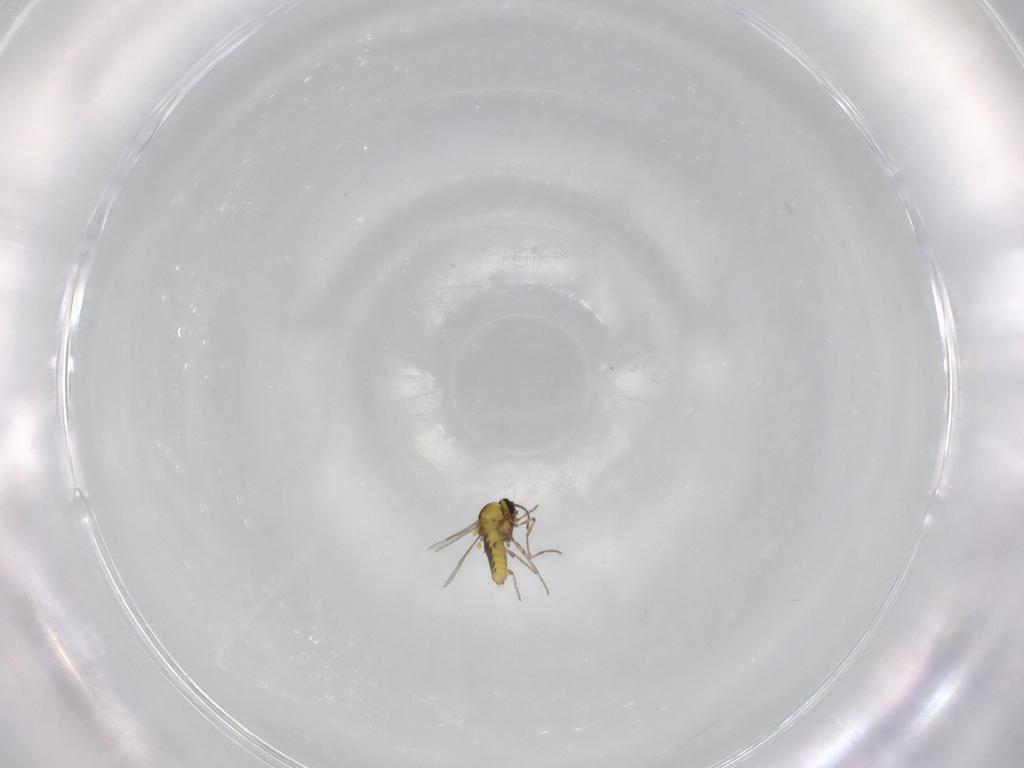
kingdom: Animalia
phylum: Arthropoda
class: Insecta
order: Diptera
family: Ceratopogonidae
